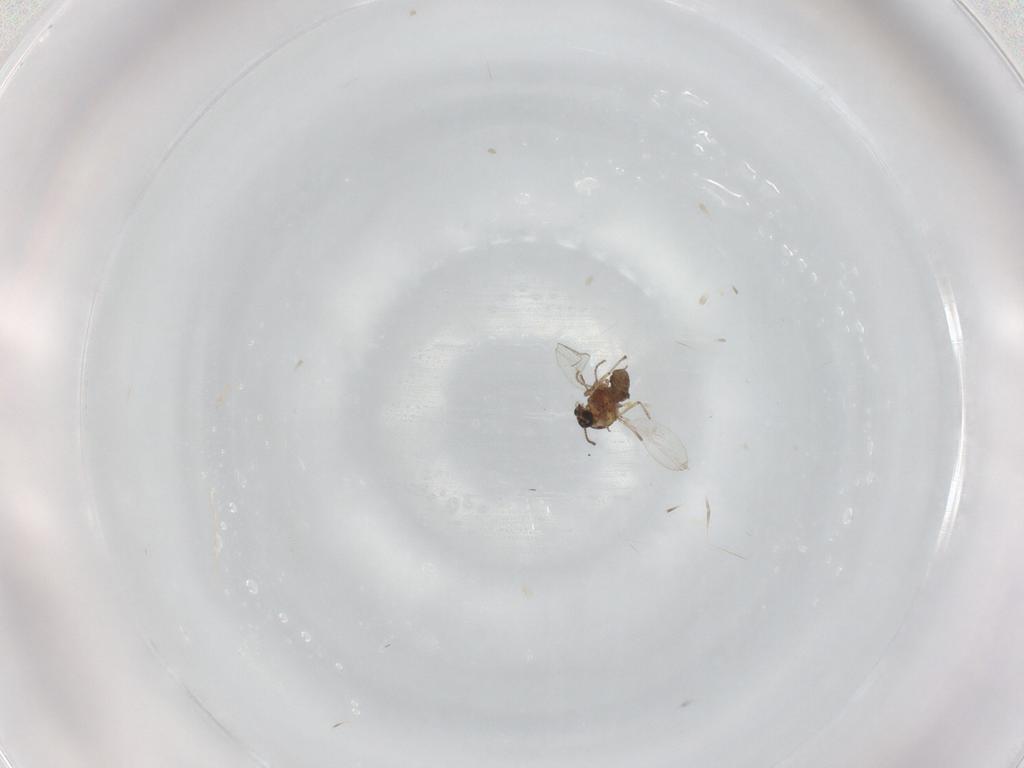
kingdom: Animalia
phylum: Arthropoda
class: Insecta
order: Diptera
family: Ceratopogonidae
